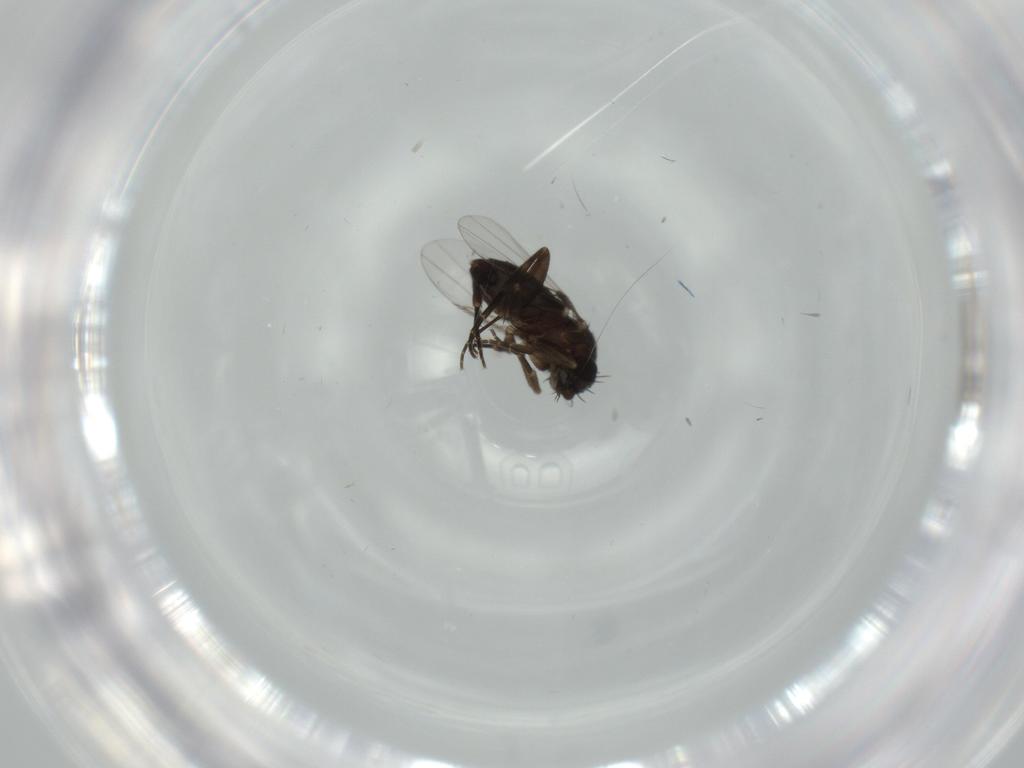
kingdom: Animalia
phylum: Arthropoda
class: Insecta
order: Diptera
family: Phoridae
